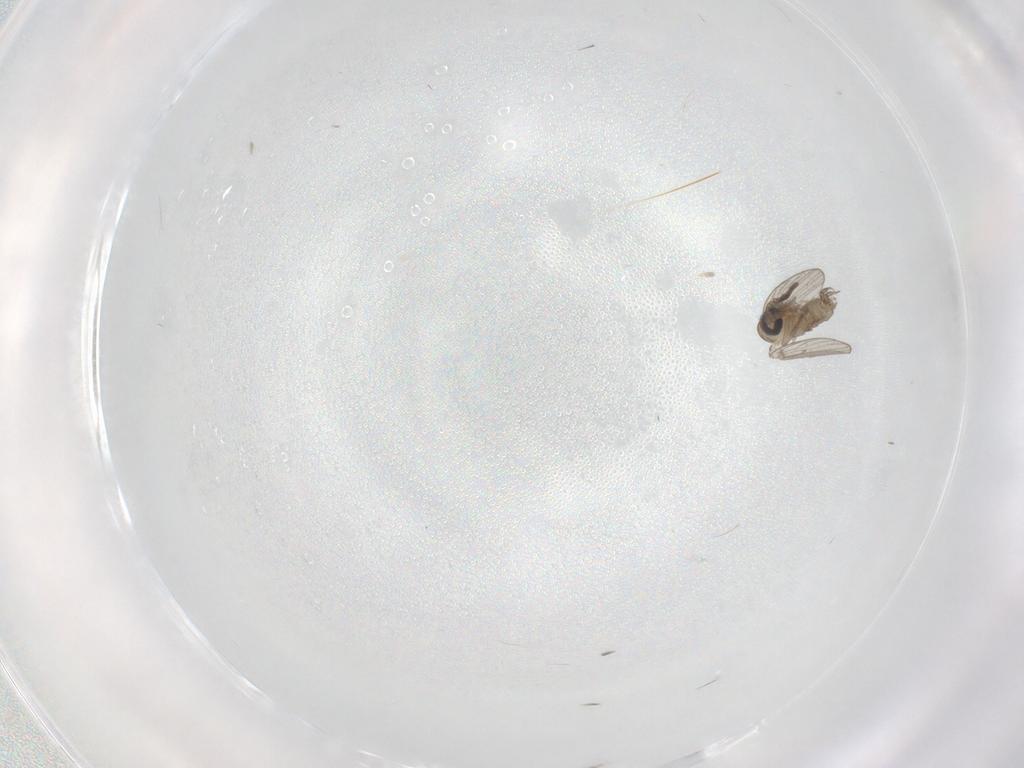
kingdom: Animalia
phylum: Arthropoda
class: Insecta
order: Diptera
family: Psychodidae
